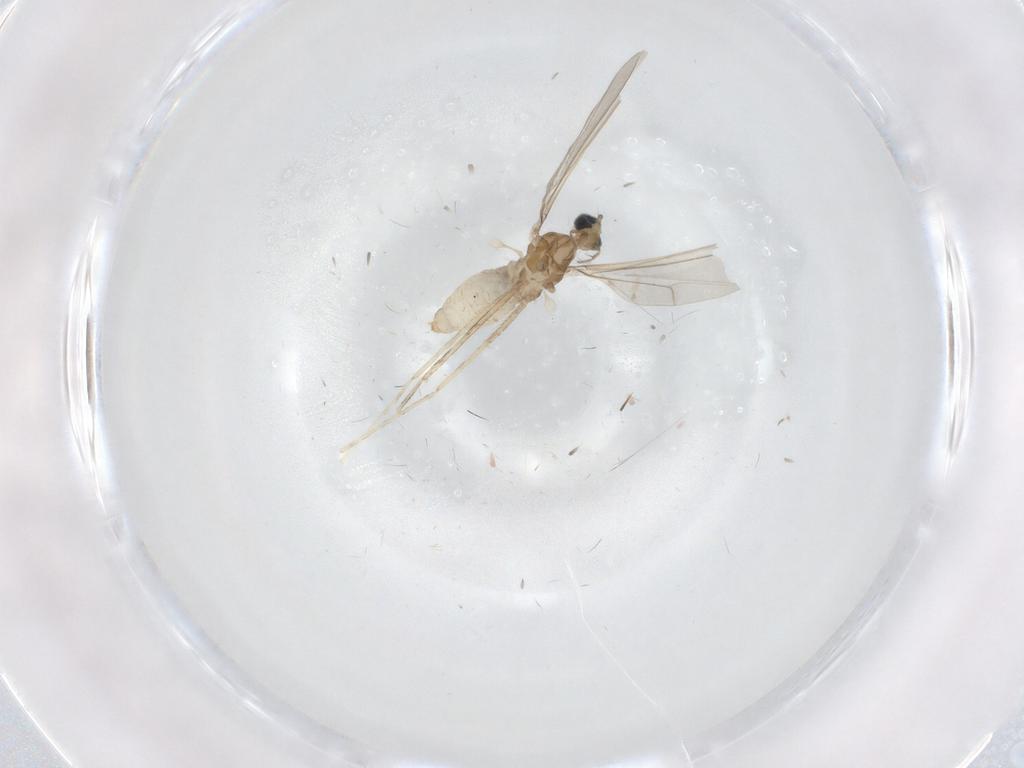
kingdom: Animalia
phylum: Arthropoda
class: Insecta
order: Diptera
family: Cecidomyiidae
